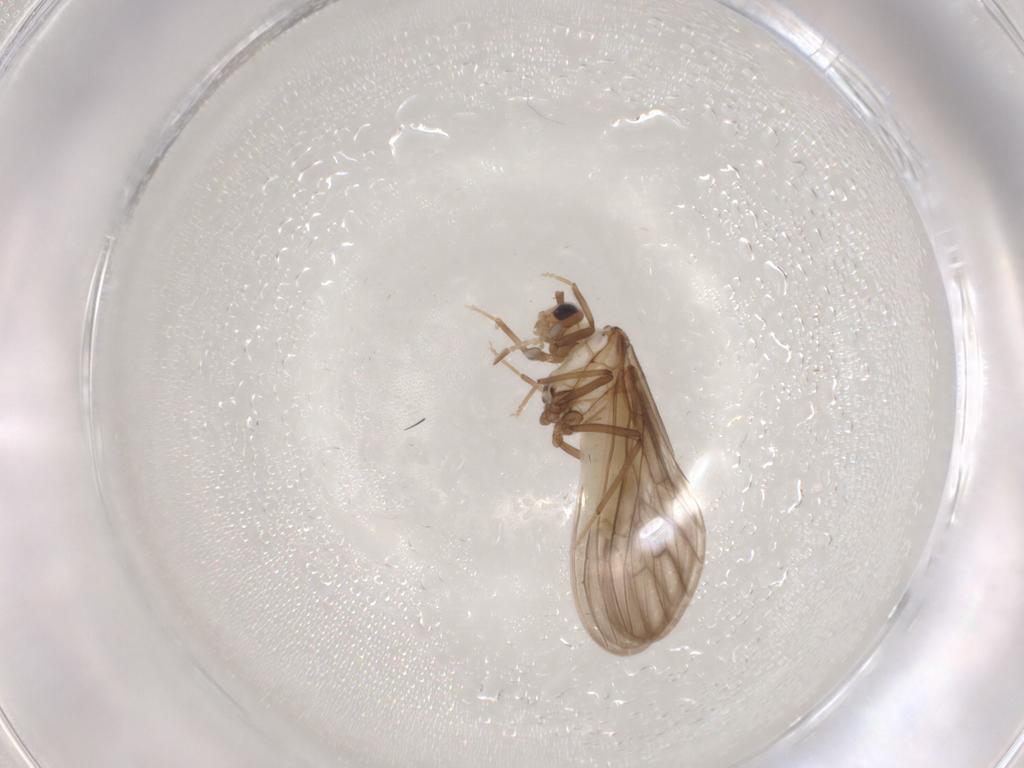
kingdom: Animalia
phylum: Arthropoda
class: Insecta
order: Neuroptera
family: Coniopterygidae
